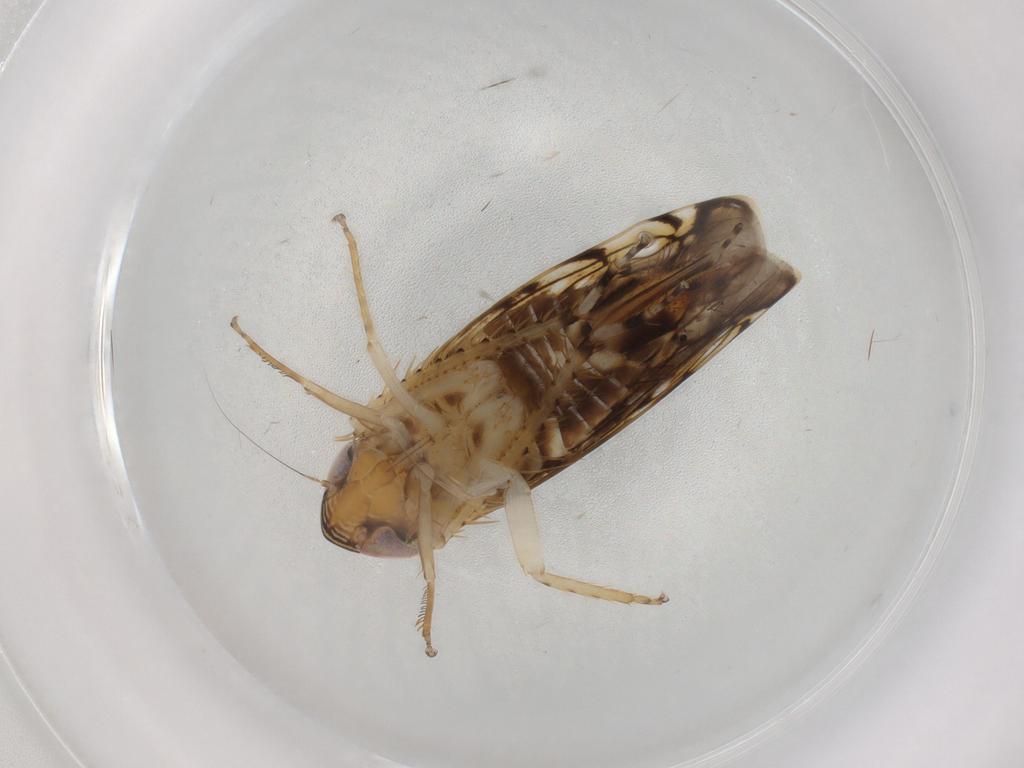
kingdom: Animalia
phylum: Arthropoda
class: Insecta
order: Hemiptera
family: Cicadellidae
